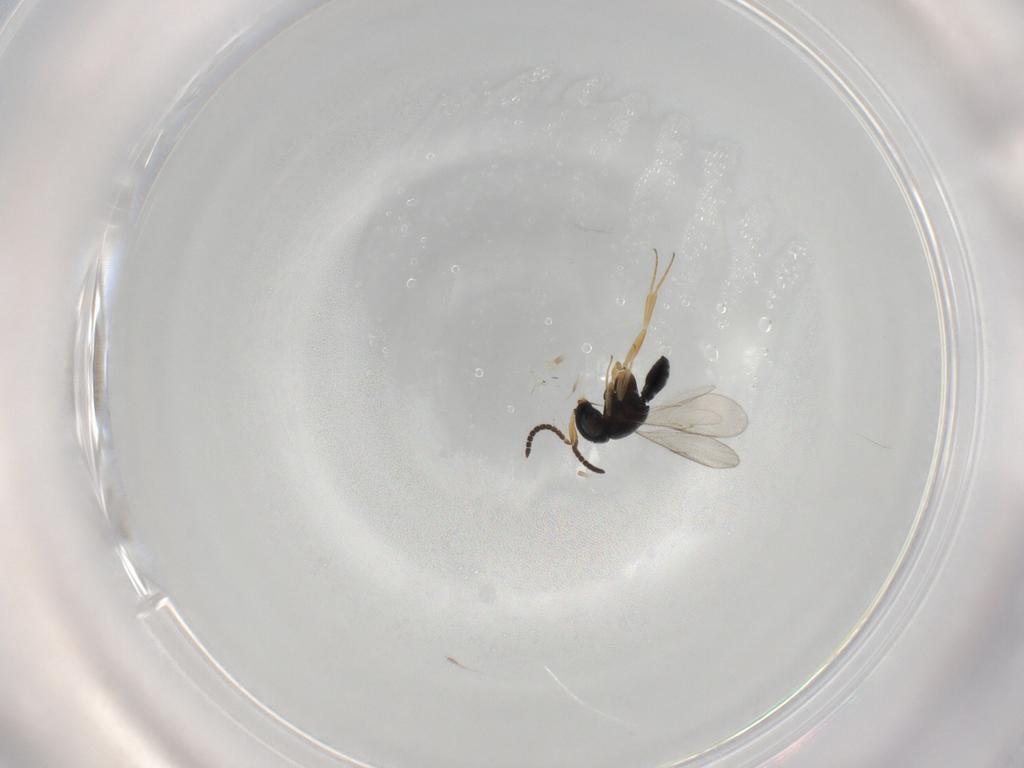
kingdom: Animalia
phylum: Arthropoda
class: Insecta
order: Hymenoptera
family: Scelionidae
